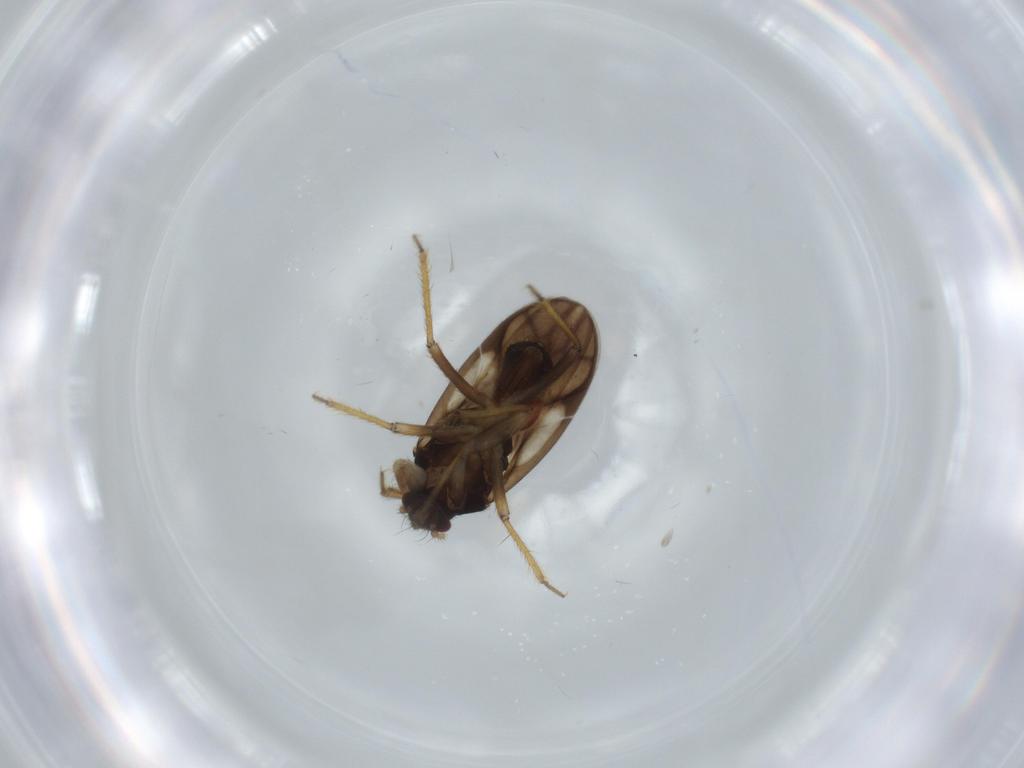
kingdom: Animalia
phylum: Arthropoda
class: Insecta
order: Hemiptera
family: Ceratocombidae
